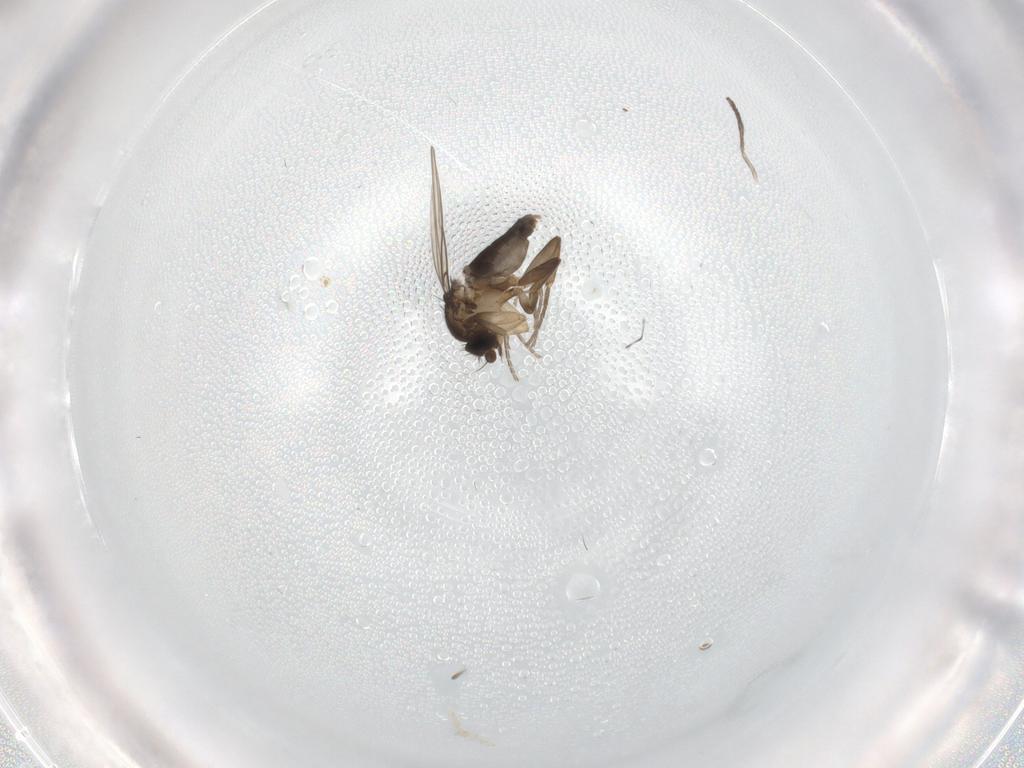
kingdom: Animalia
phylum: Arthropoda
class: Insecta
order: Diptera
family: Psychodidae
